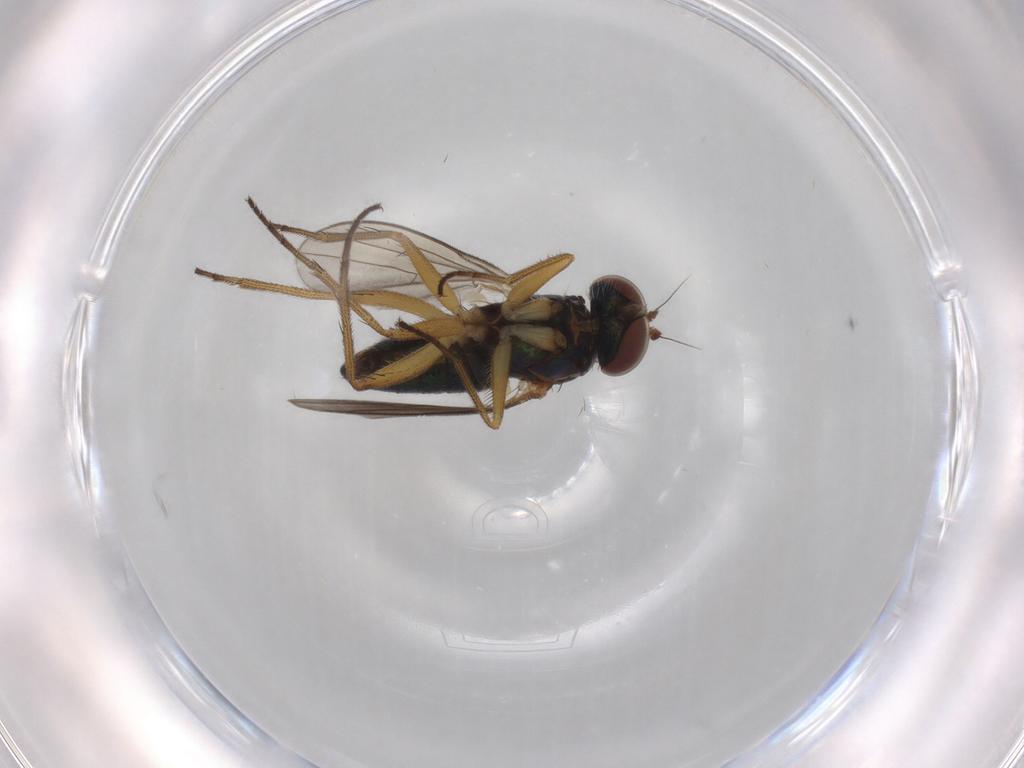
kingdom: Animalia
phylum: Arthropoda
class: Insecta
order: Diptera
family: Dolichopodidae
